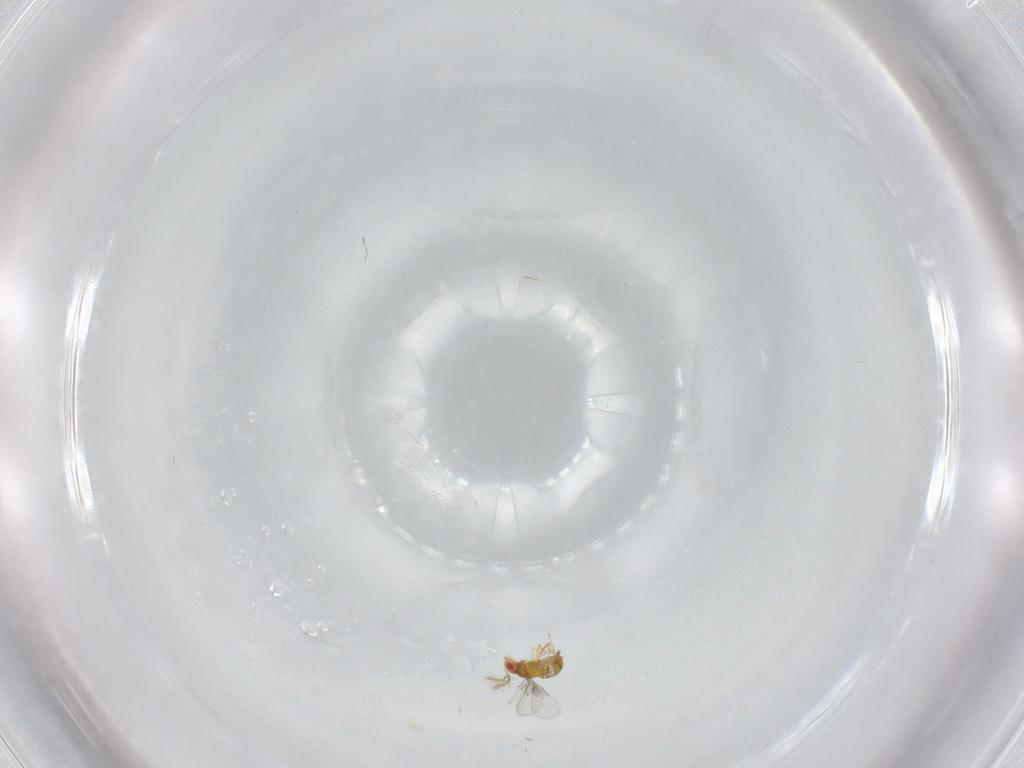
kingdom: Animalia
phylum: Arthropoda
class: Insecta
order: Hymenoptera
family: Trichogrammatidae
